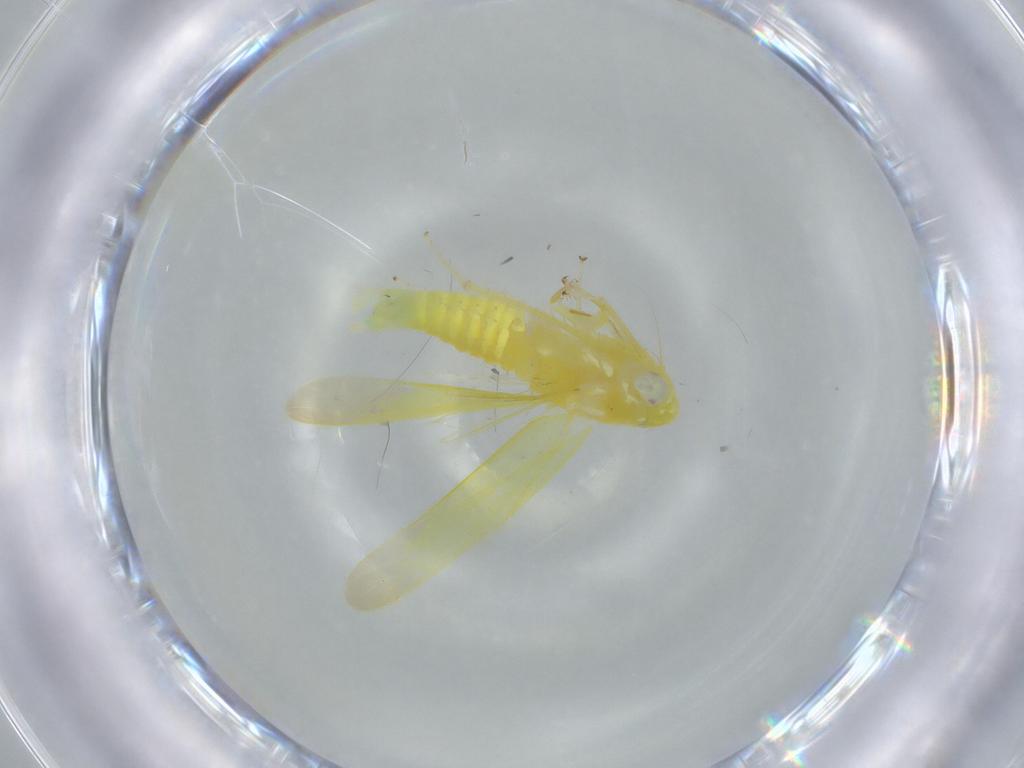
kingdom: Animalia
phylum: Arthropoda
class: Insecta
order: Hemiptera
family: Cicadellidae
